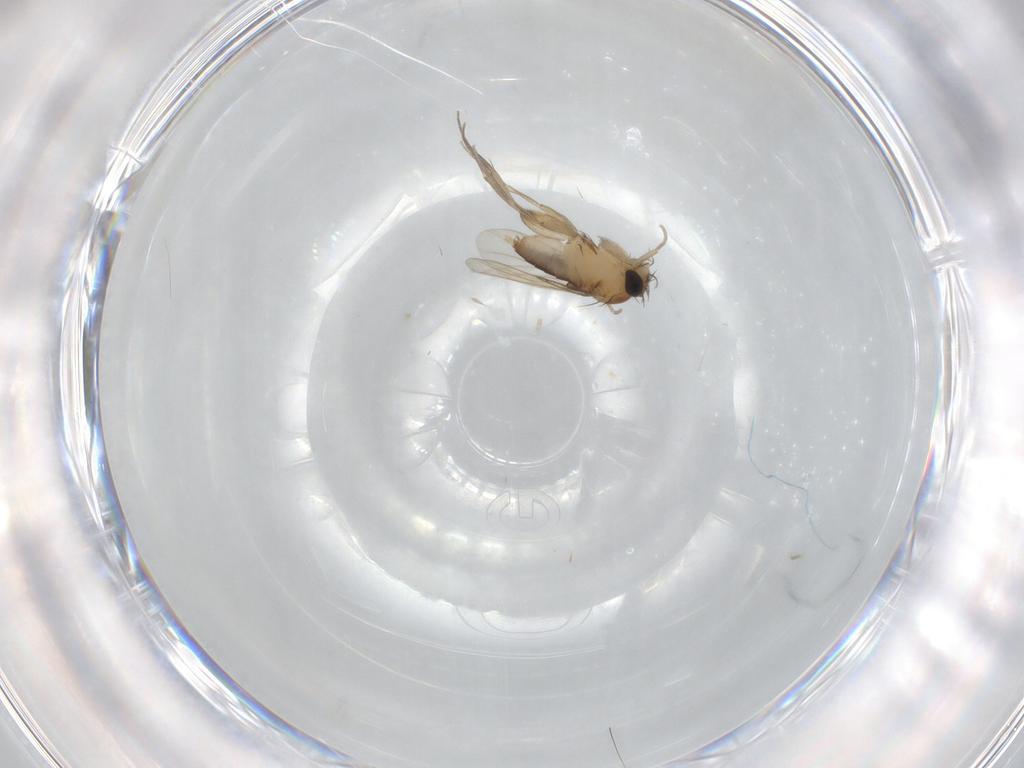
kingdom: Animalia
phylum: Arthropoda
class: Insecta
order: Diptera
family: Phoridae
